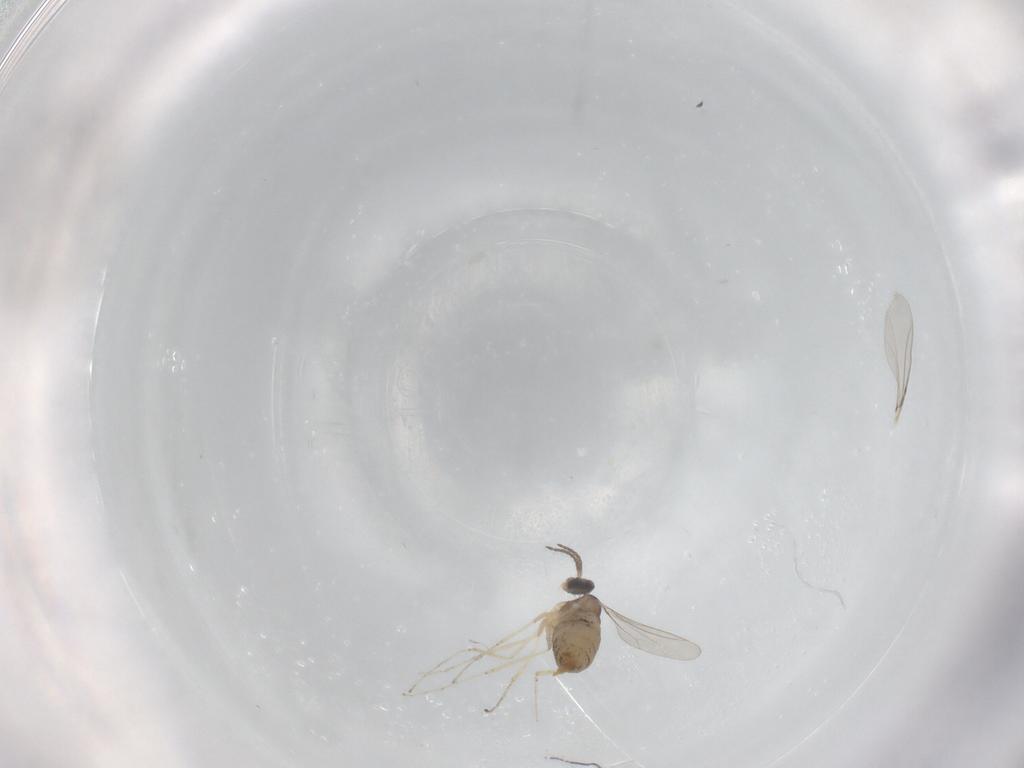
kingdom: Animalia
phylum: Arthropoda
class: Insecta
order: Diptera
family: Cecidomyiidae
